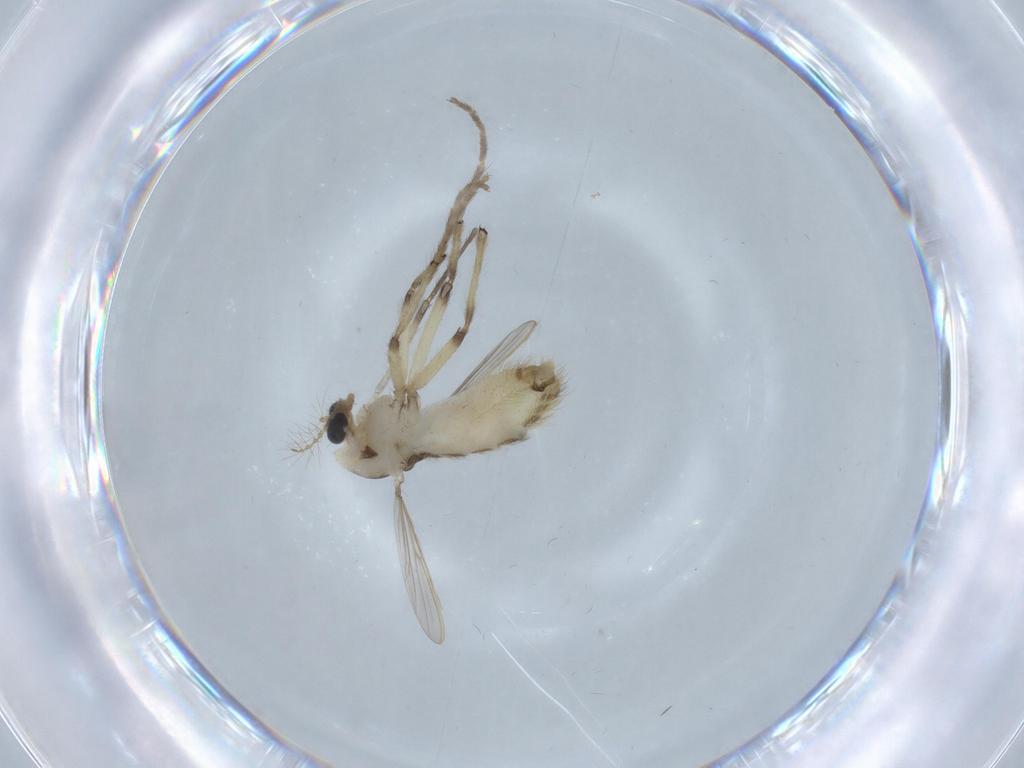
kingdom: Animalia
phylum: Arthropoda
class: Insecta
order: Diptera
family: Chironomidae
